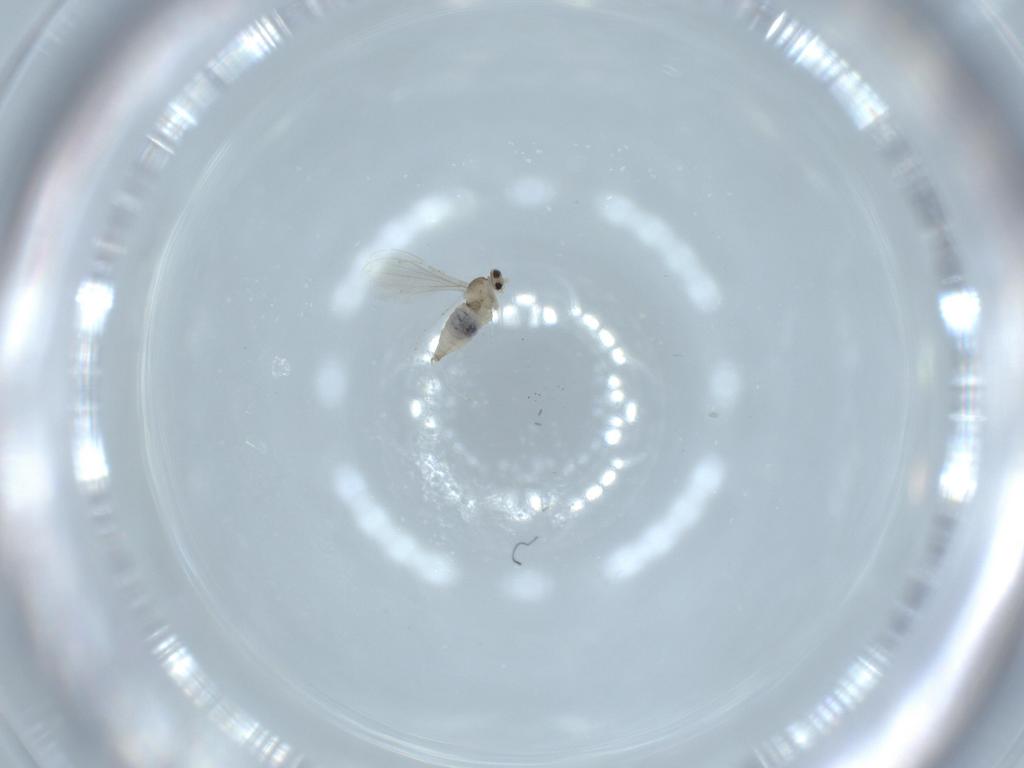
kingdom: Animalia
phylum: Arthropoda
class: Insecta
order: Diptera
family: Cecidomyiidae
